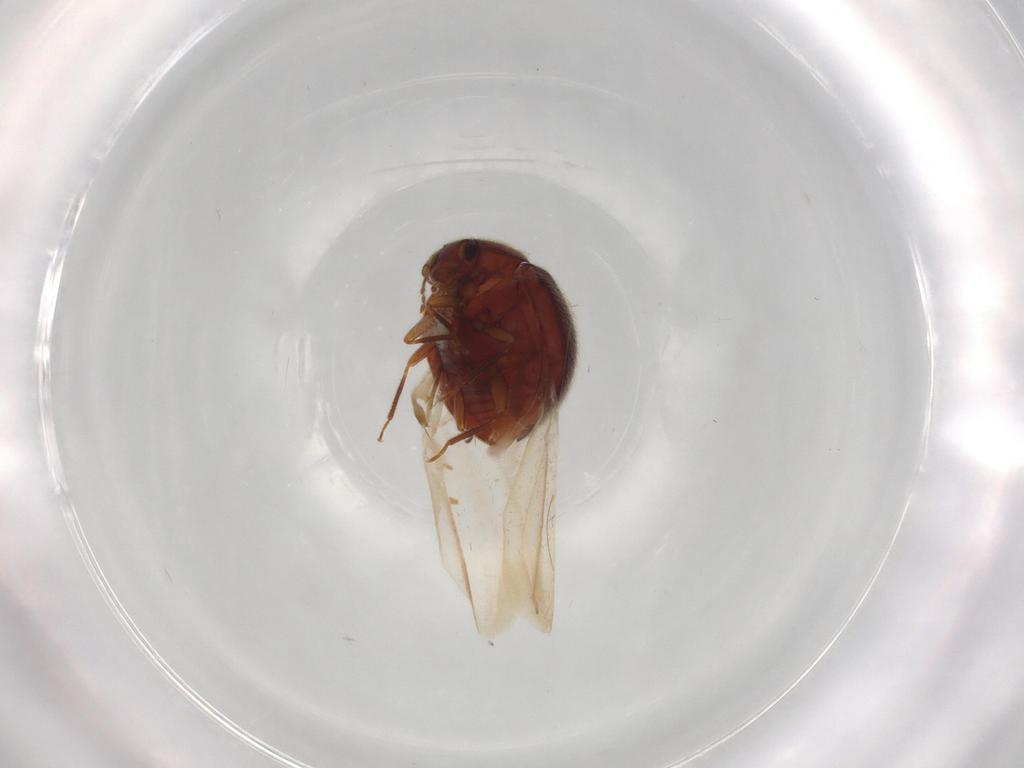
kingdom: Animalia
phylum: Arthropoda
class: Insecta
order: Coleoptera
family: Anamorphidae
